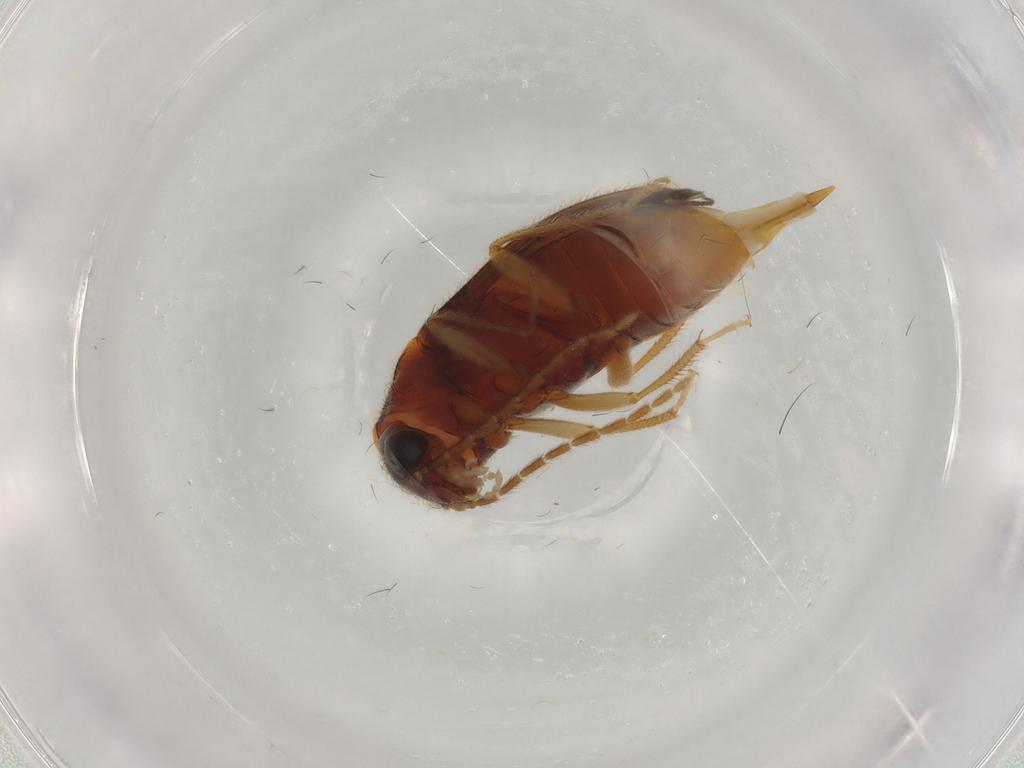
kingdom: Animalia
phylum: Arthropoda
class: Insecta
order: Coleoptera
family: Ptilodactylidae
